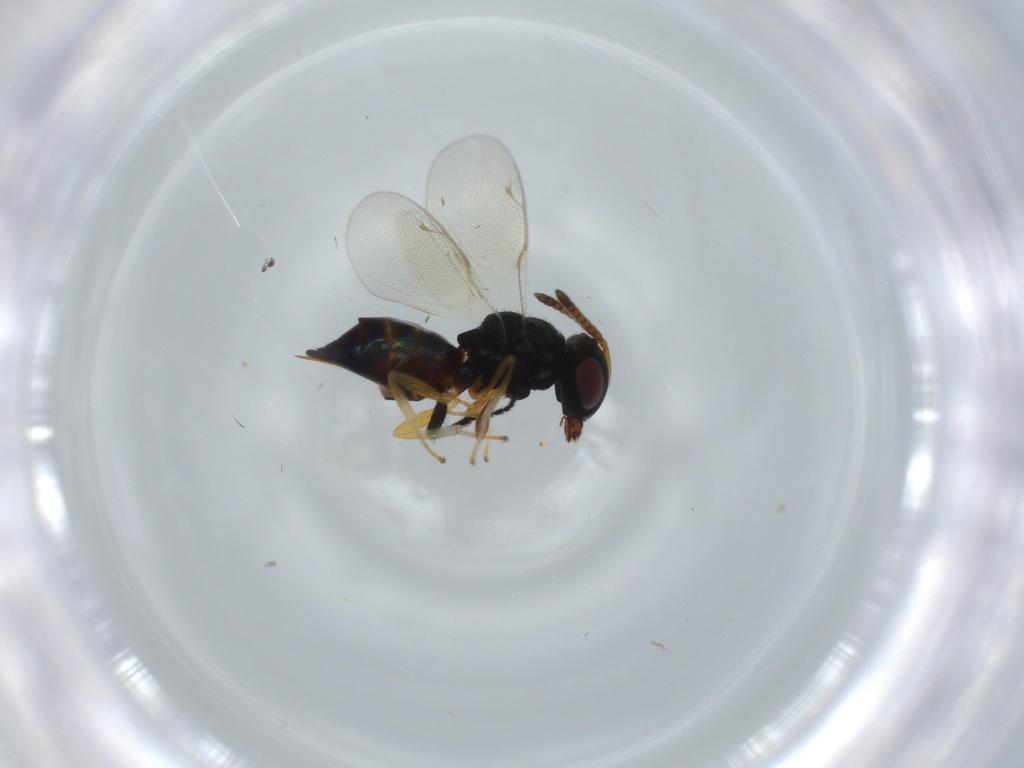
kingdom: Animalia
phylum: Arthropoda
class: Insecta
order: Hymenoptera
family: Pteromalidae
